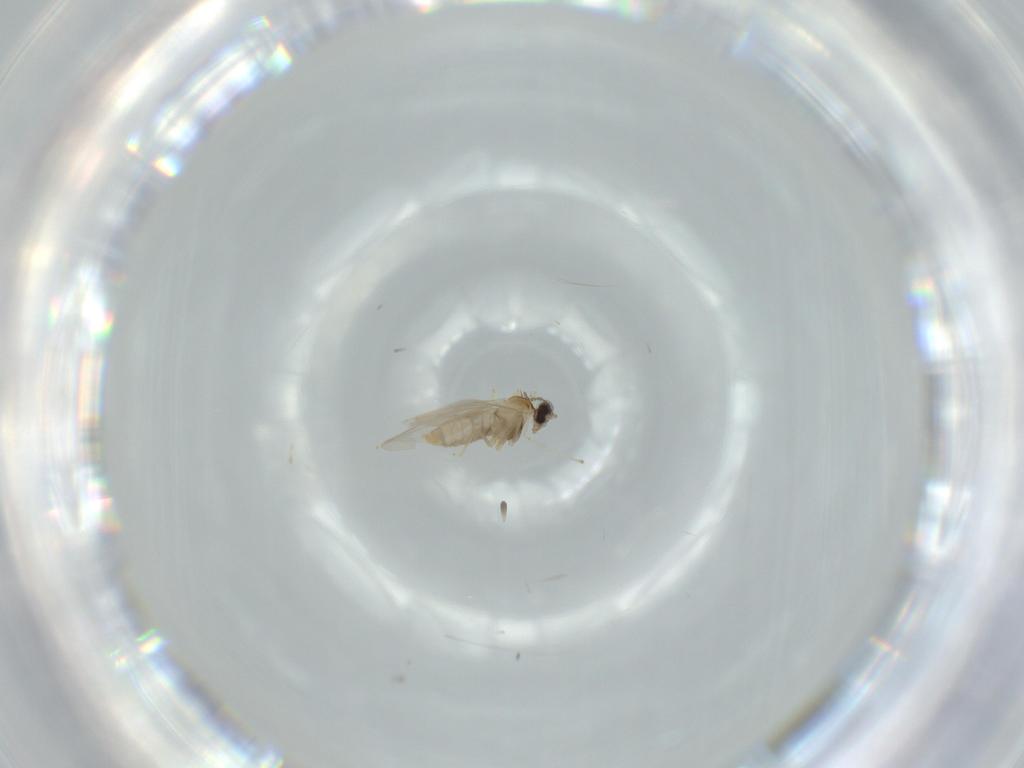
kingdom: Animalia
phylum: Arthropoda
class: Insecta
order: Diptera
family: Cecidomyiidae
